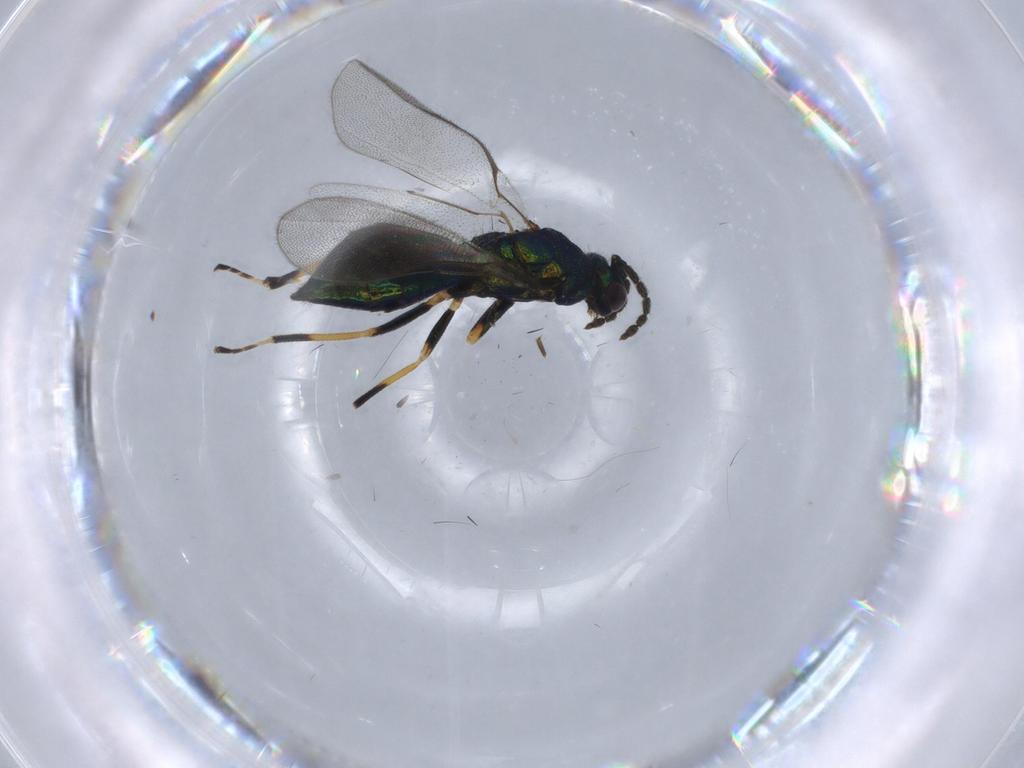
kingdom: Animalia
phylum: Arthropoda
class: Insecta
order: Hymenoptera
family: Eulophidae
